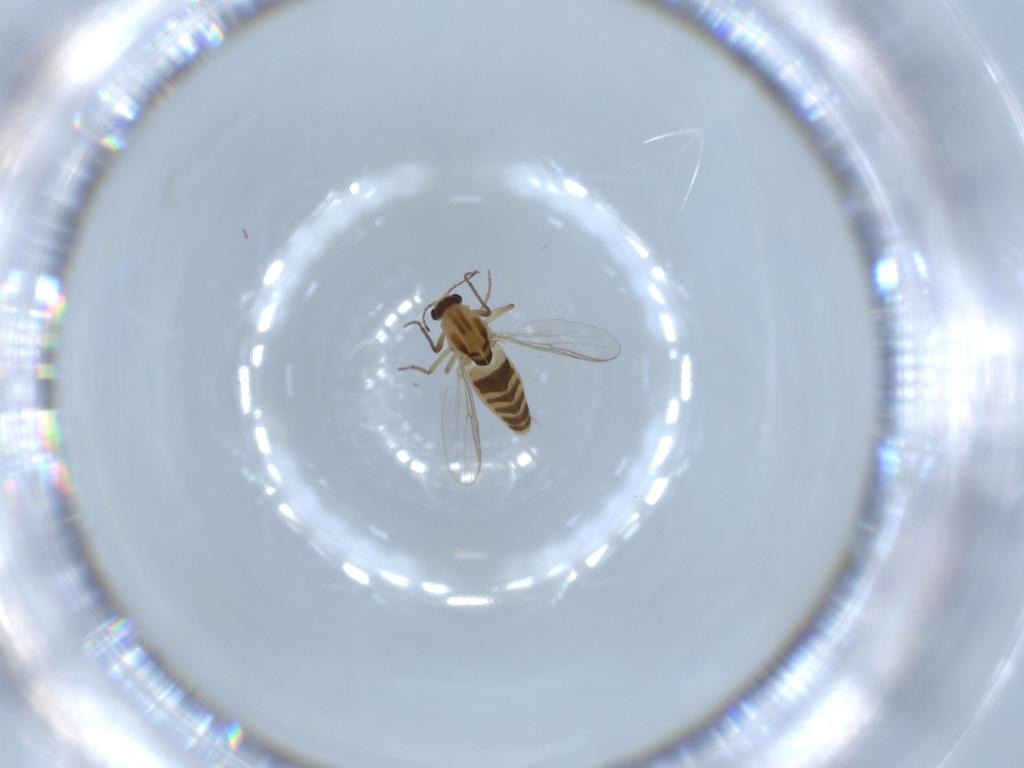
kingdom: Animalia
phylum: Arthropoda
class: Insecta
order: Diptera
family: Chironomidae
